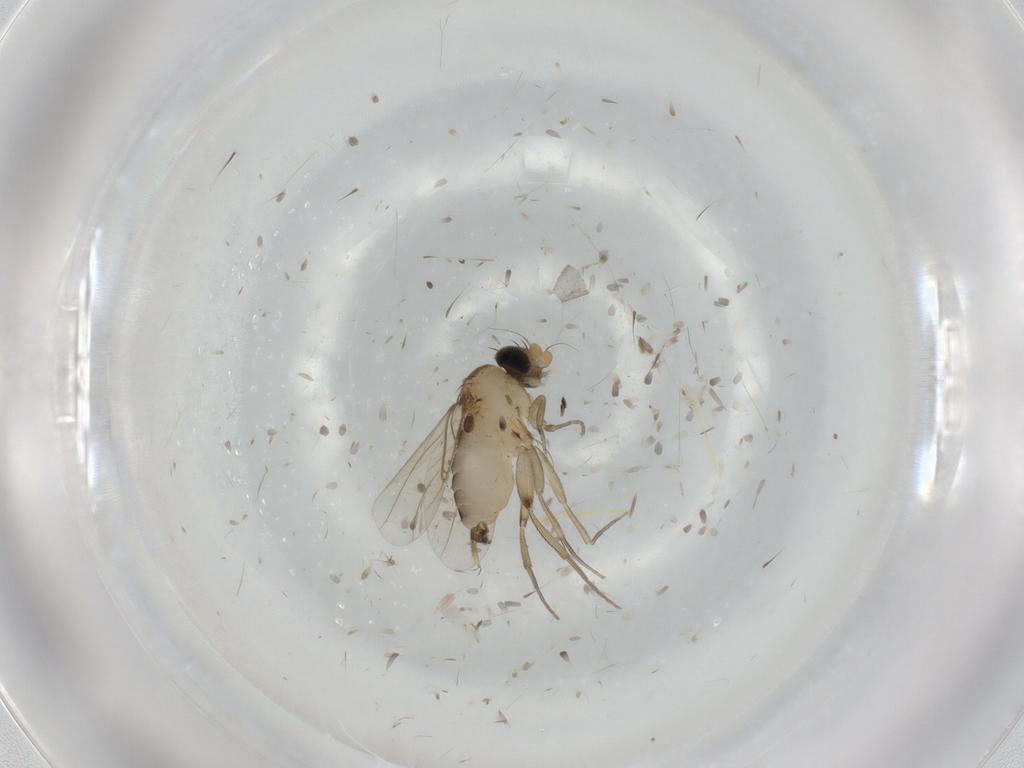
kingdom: Animalia
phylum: Arthropoda
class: Insecta
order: Diptera
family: Phoridae
